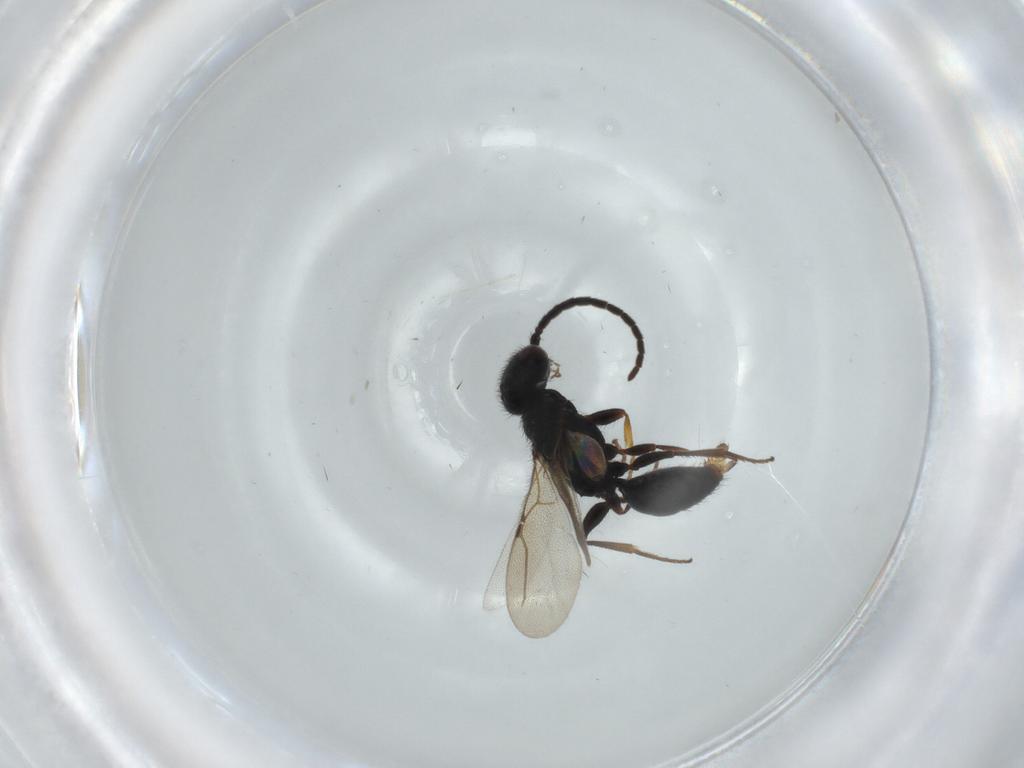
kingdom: Animalia
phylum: Arthropoda
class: Insecta
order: Hymenoptera
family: Bethylidae
